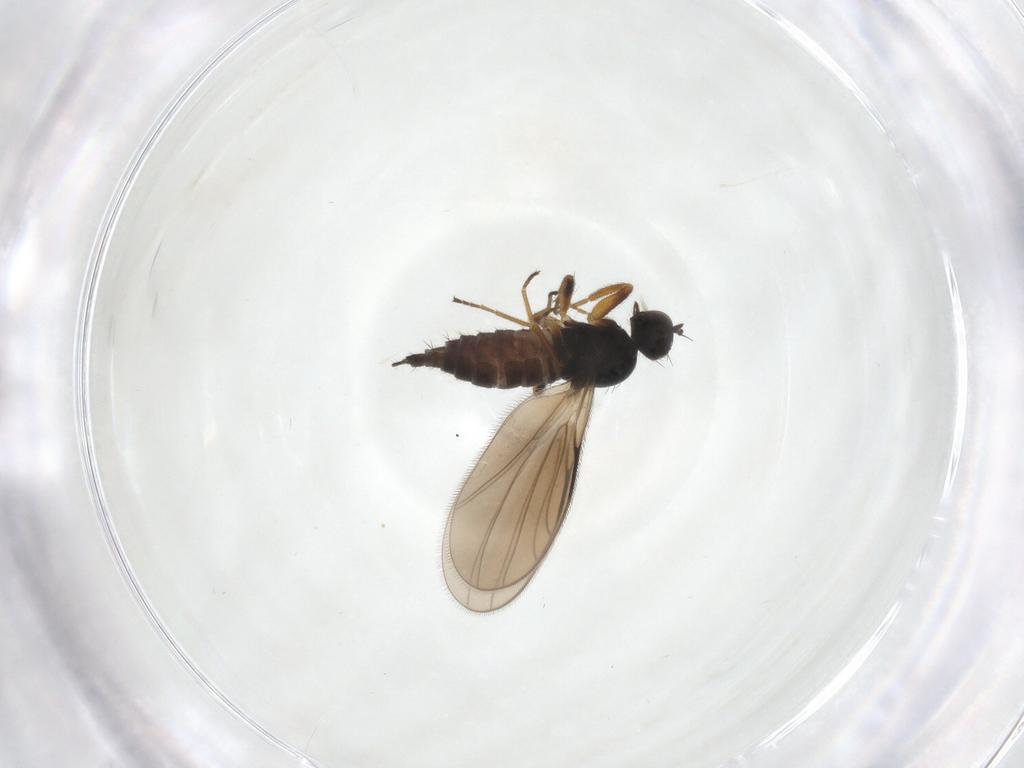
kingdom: Animalia
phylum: Arthropoda
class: Insecta
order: Diptera
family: Hybotidae
